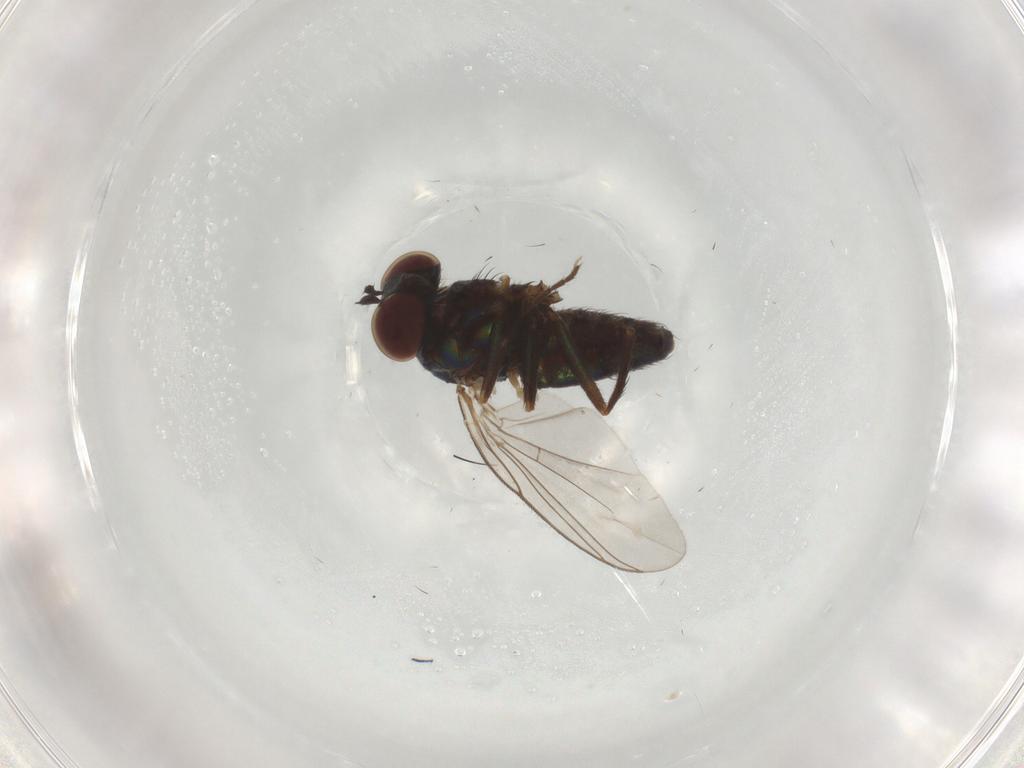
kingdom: Animalia
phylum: Arthropoda
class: Insecta
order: Diptera
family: Dolichopodidae
